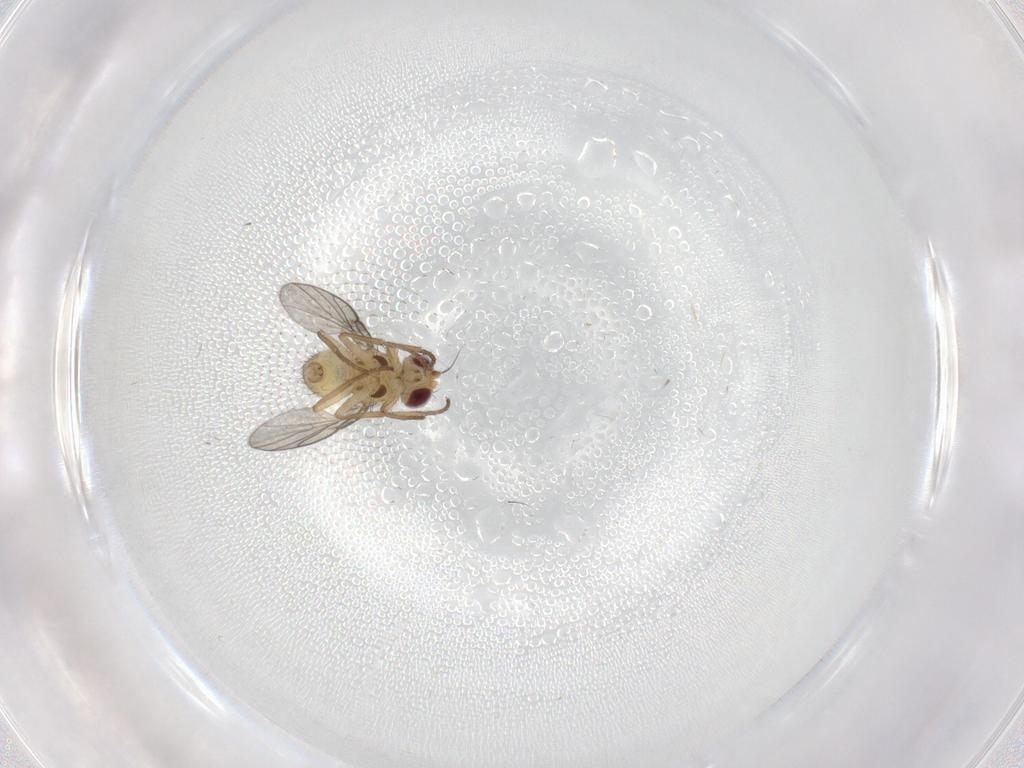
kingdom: Animalia
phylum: Arthropoda
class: Insecta
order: Diptera
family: Agromyzidae
